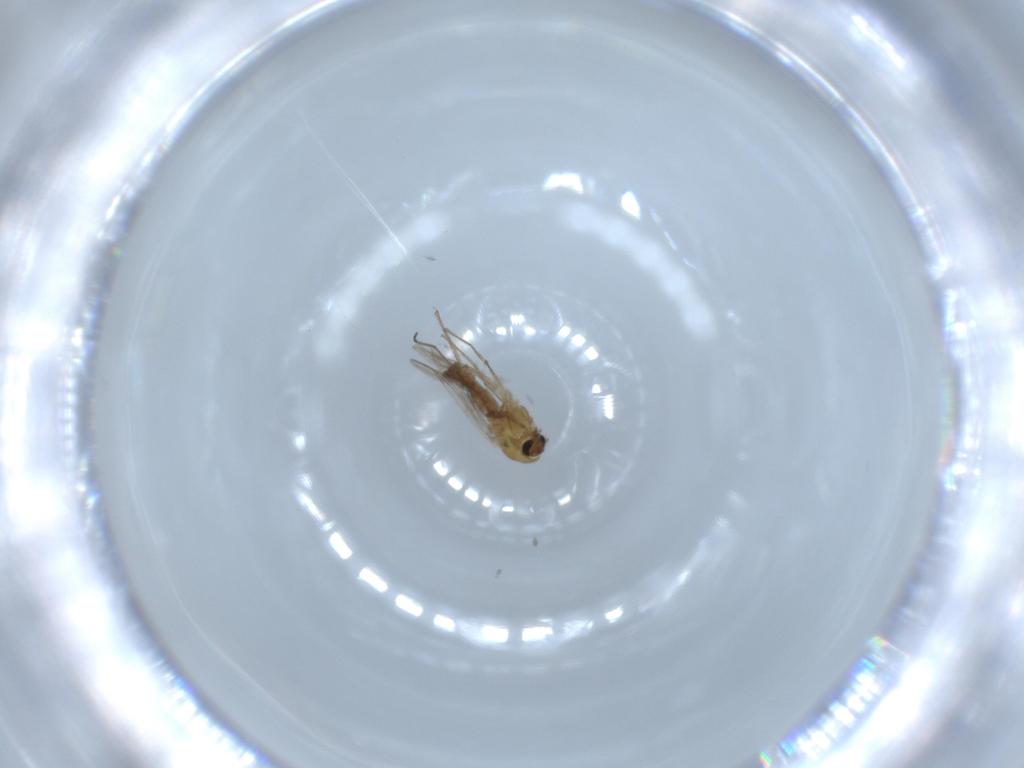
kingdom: Animalia
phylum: Arthropoda
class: Insecta
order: Diptera
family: Chironomidae
